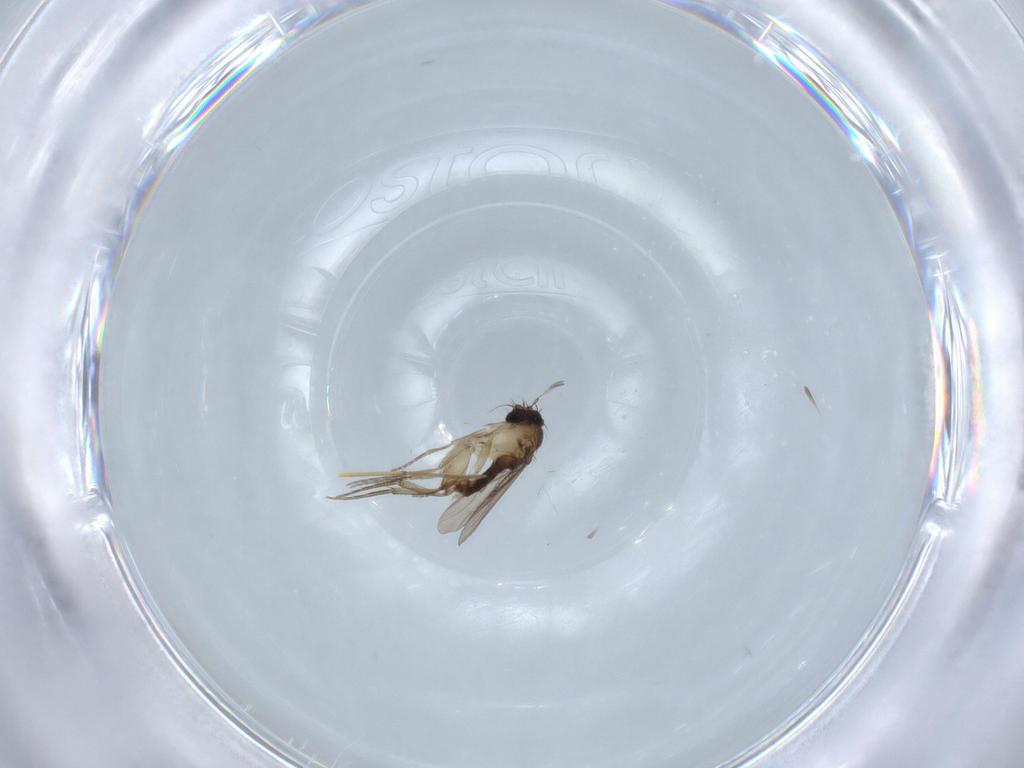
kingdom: Animalia
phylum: Arthropoda
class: Insecta
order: Diptera
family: Phoridae
